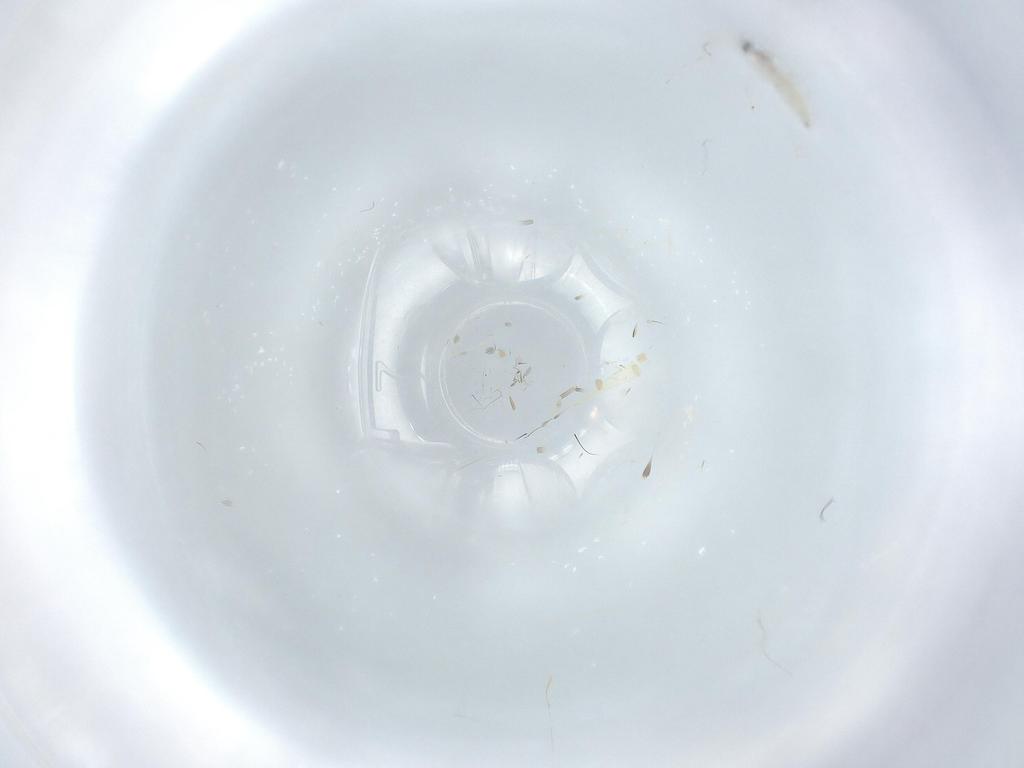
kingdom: Animalia
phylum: Arthropoda
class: Insecta
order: Diptera
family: Cecidomyiidae
